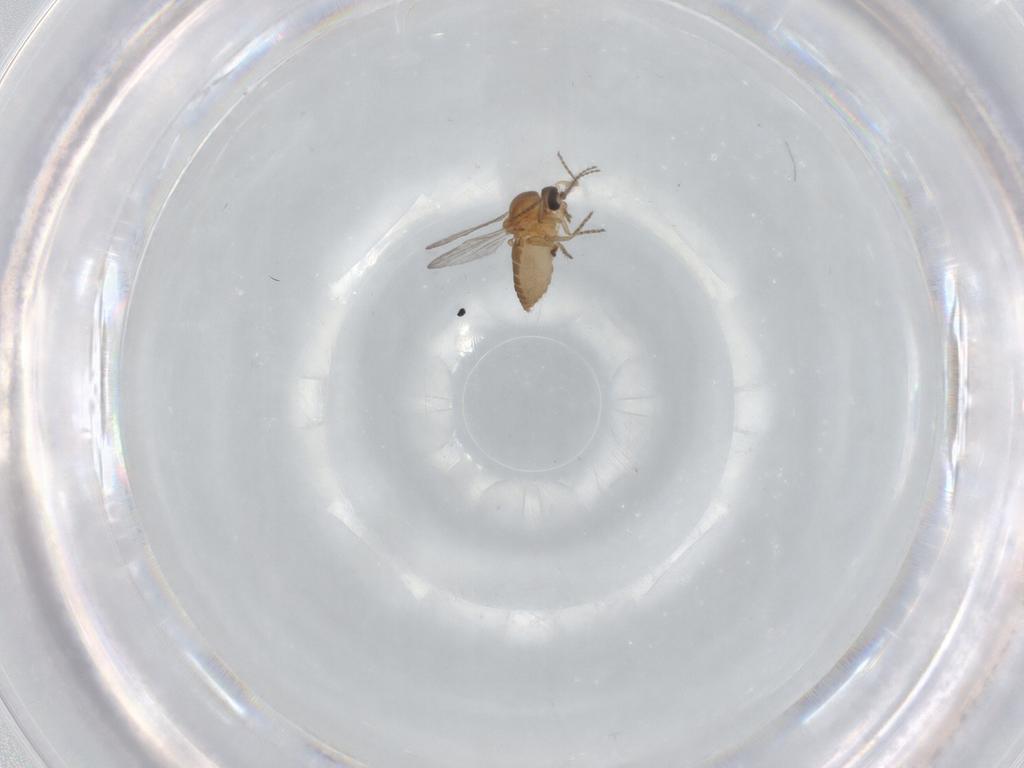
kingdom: Animalia
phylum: Arthropoda
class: Insecta
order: Diptera
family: Ceratopogonidae
